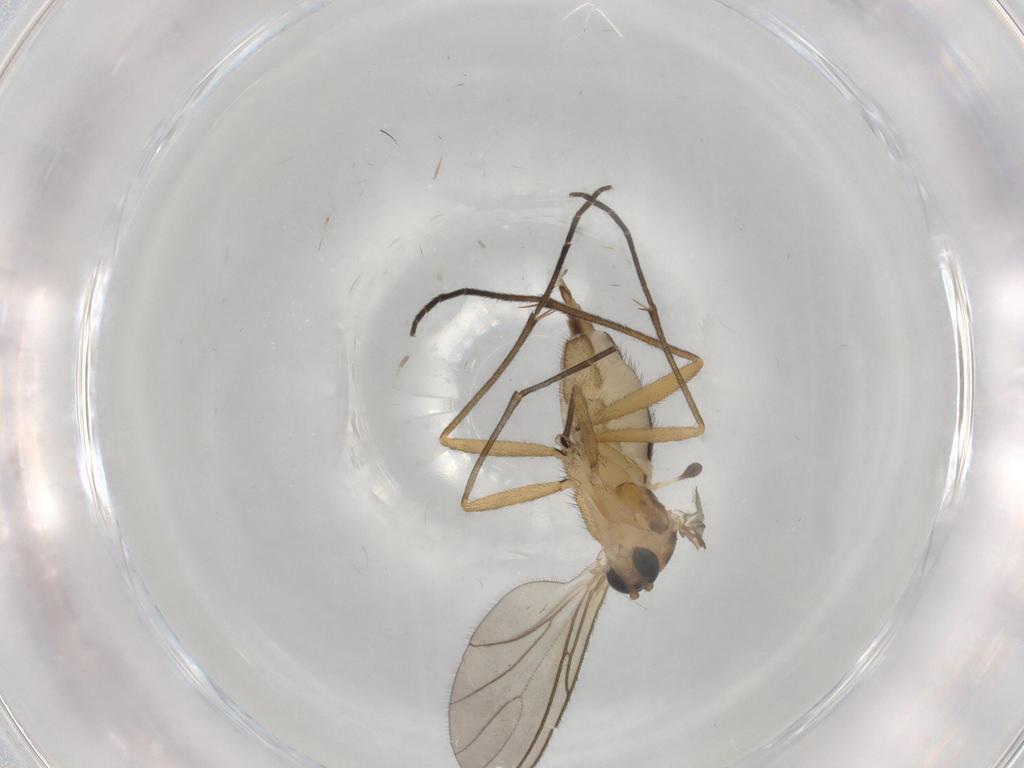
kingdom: Animalia
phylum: Arthropoda
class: Insecta
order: Diptera
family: Sciaridae
